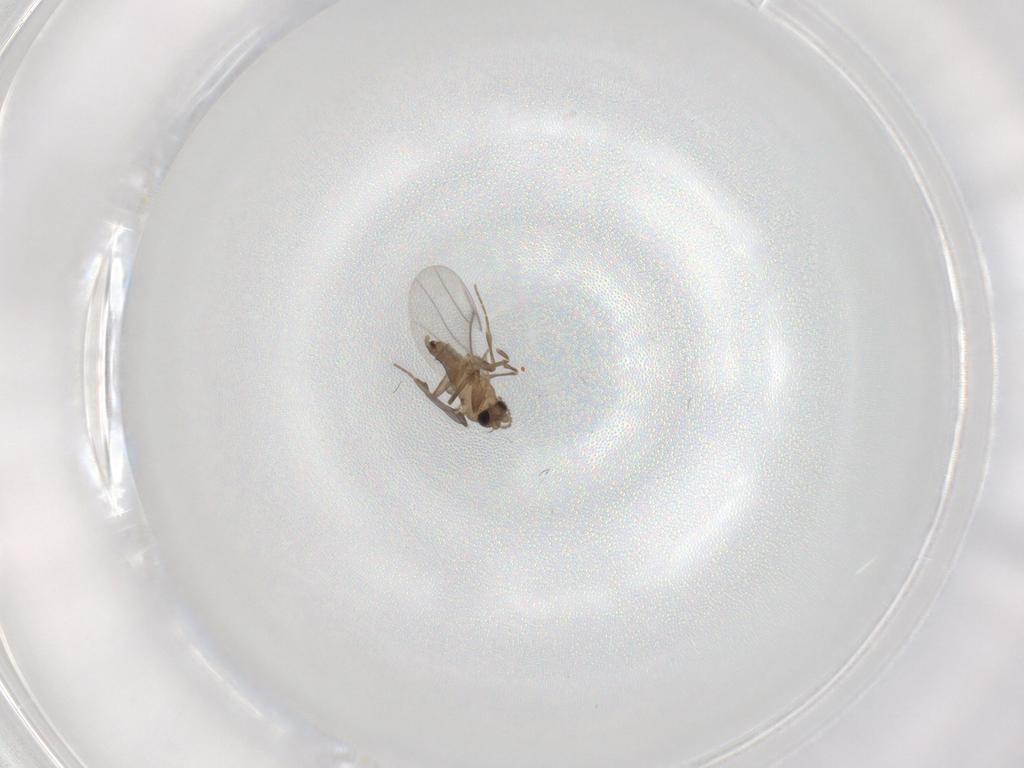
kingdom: Animalia
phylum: Arthropoda
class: Insecta
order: Diptera
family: Cecidomyiidae
